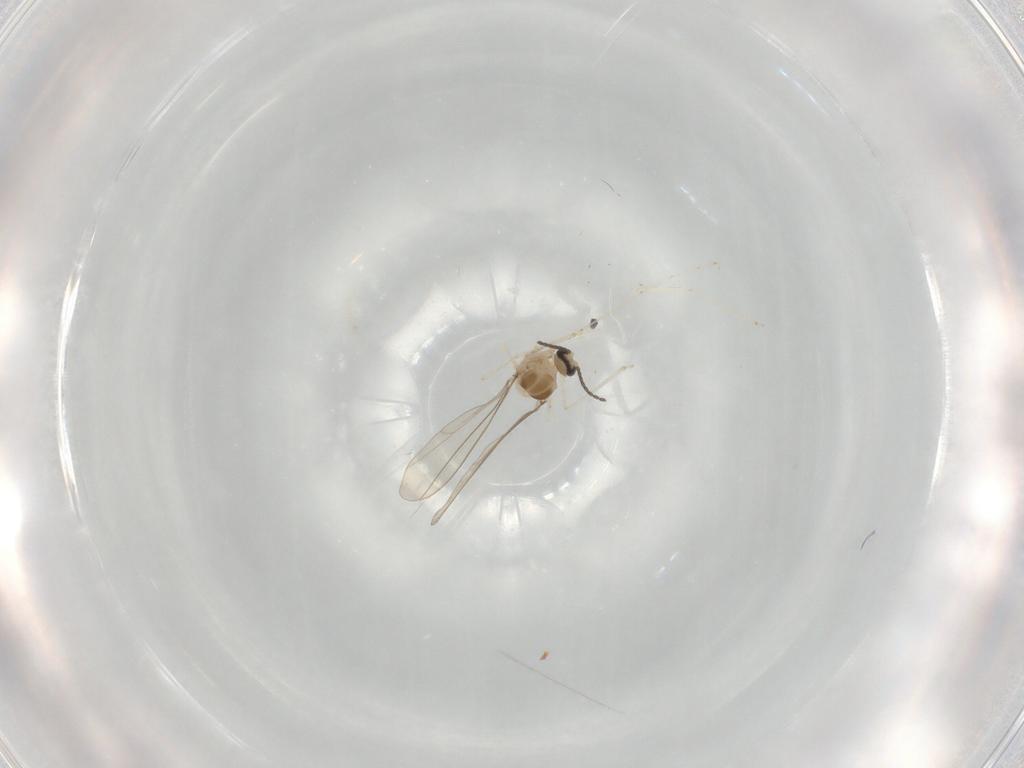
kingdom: Animalia
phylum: Arthropoda
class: Insecta
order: Diptera
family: Cecidomyiidae
